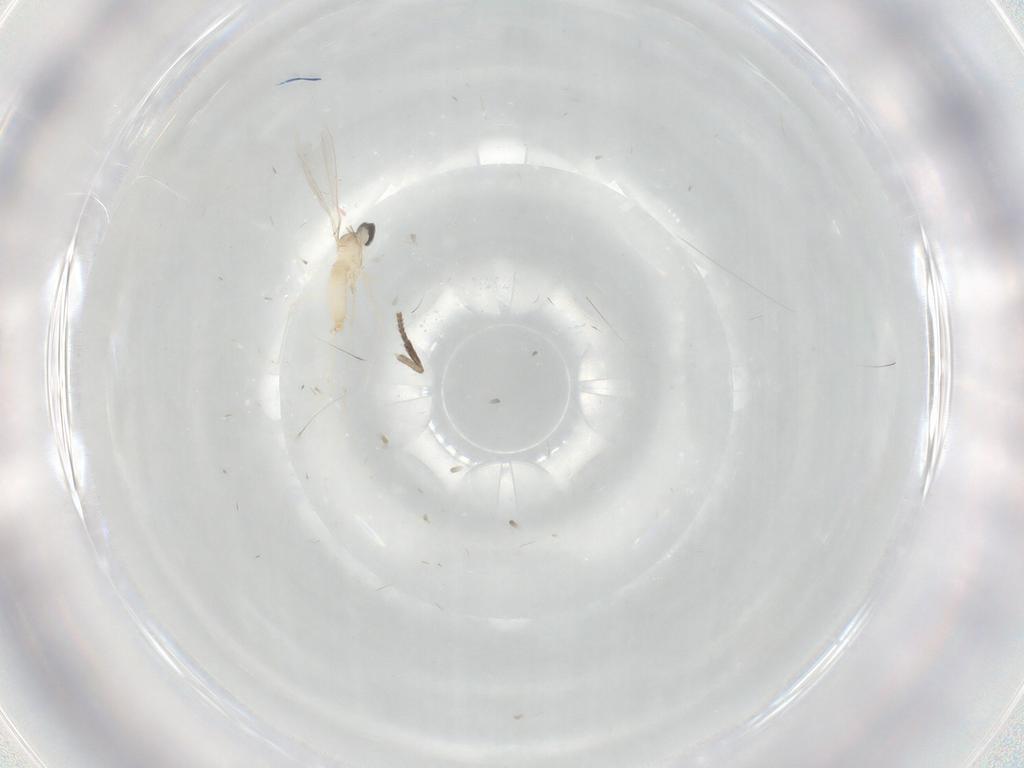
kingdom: Animalia
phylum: Arthropoda
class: Insecta
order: Diptera
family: Cecidomyiidae
